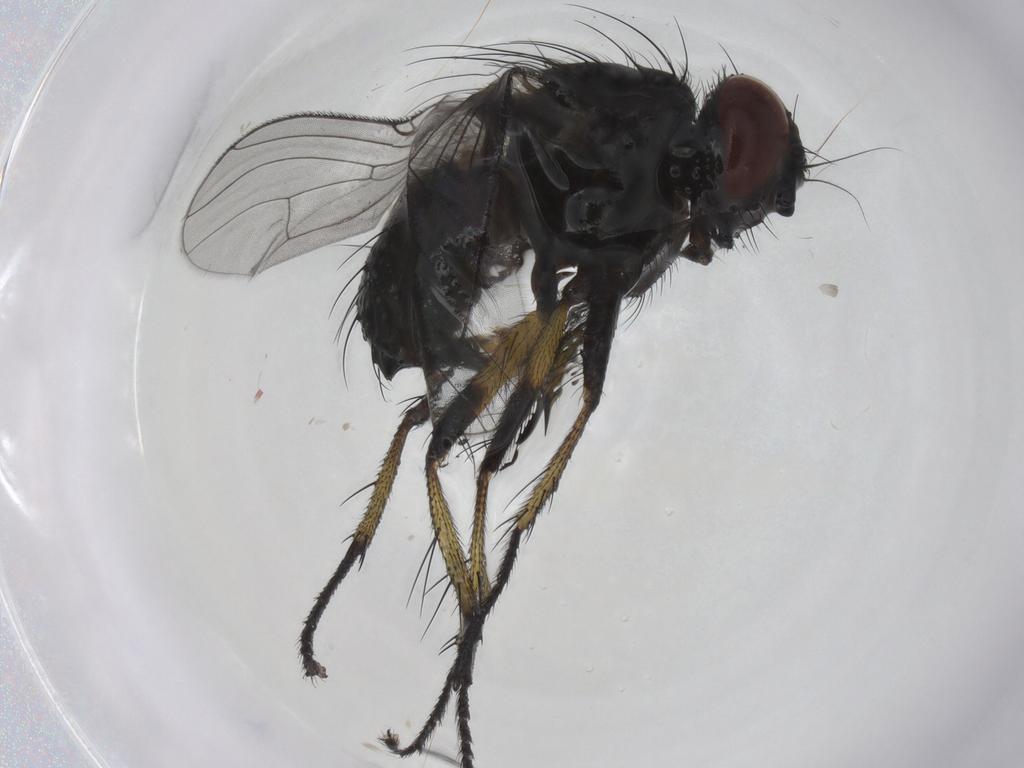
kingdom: Animalia
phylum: Arthropoda
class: Insecta
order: Diptera
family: Muscidae
